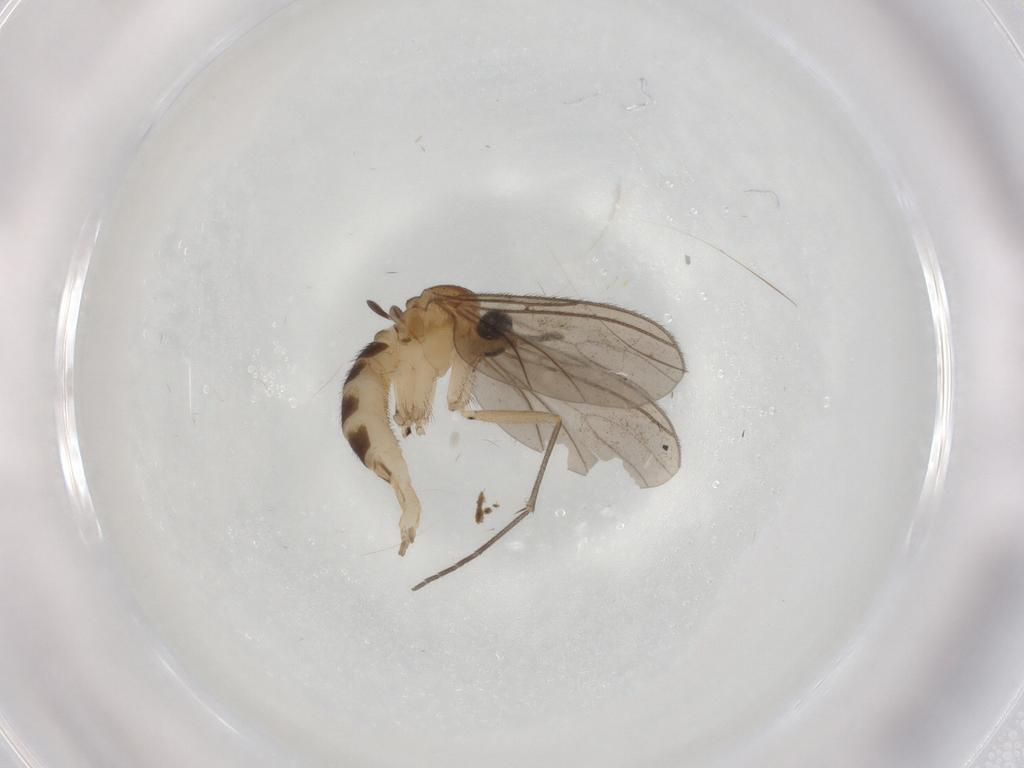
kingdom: Animalia
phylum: Arthropoda
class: Insecta
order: Diptera
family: Sciaridae
